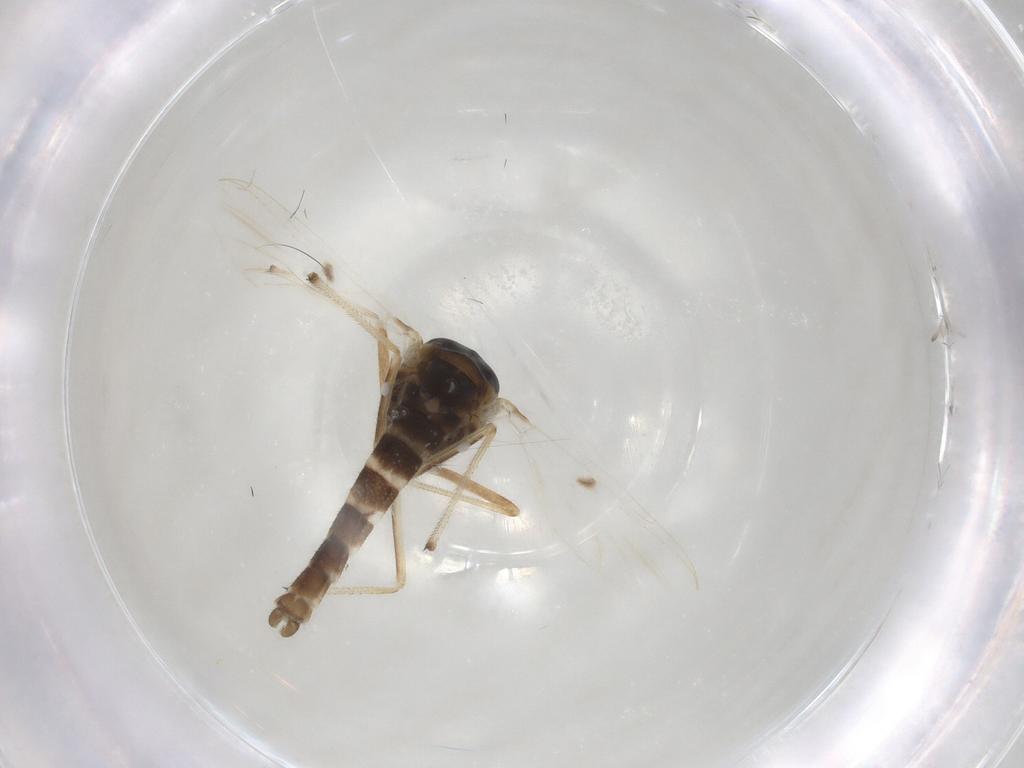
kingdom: Animalia
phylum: Arthropoda
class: Insecta
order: Diptera
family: Chironomidae
